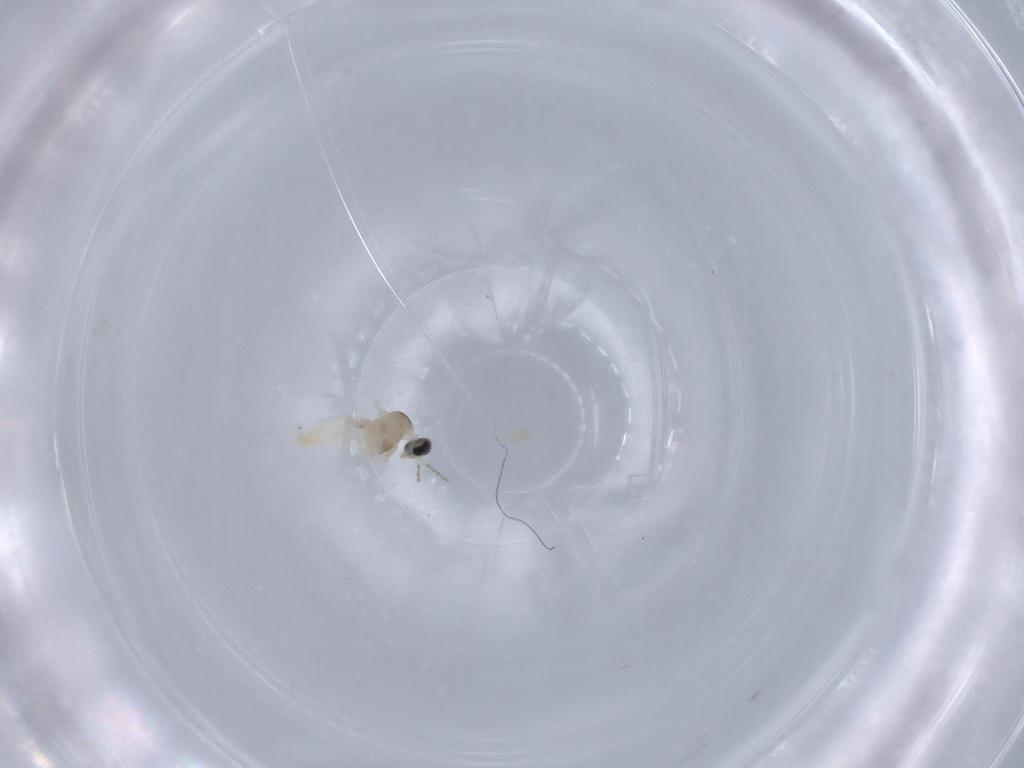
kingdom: Animalia
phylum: Arthropoda
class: Insecta
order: Diptera
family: Cecidomyiidae
